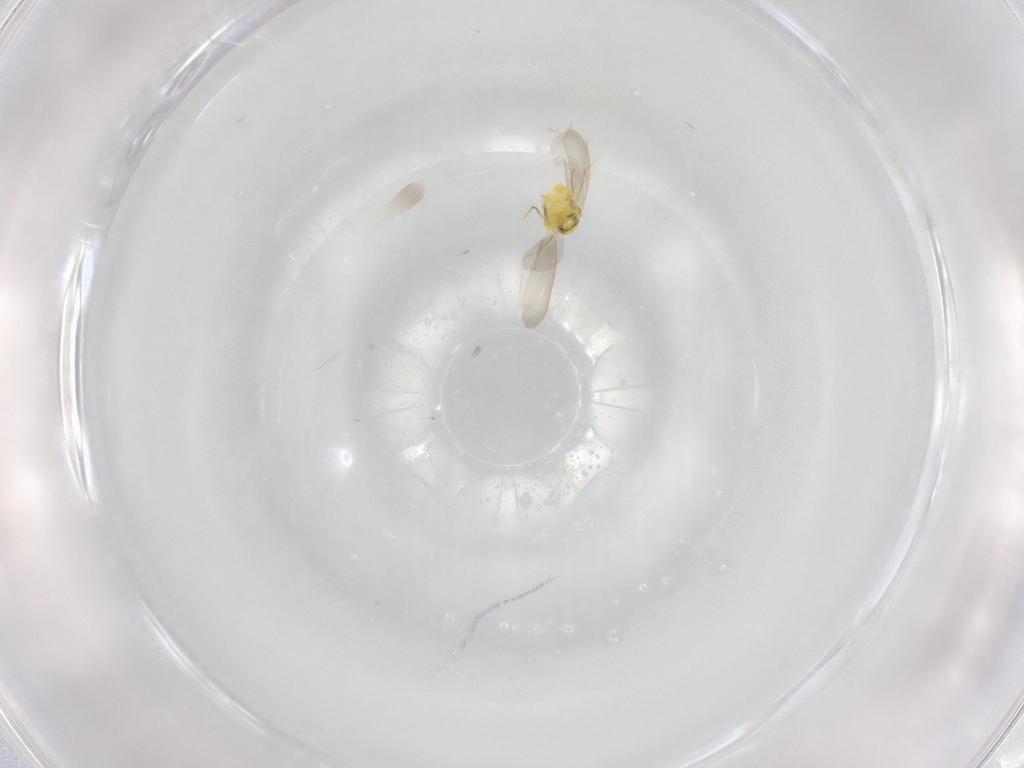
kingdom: Animalia
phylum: Arthropoda
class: Insecta
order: Hemiptera
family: Aleyrodidae
